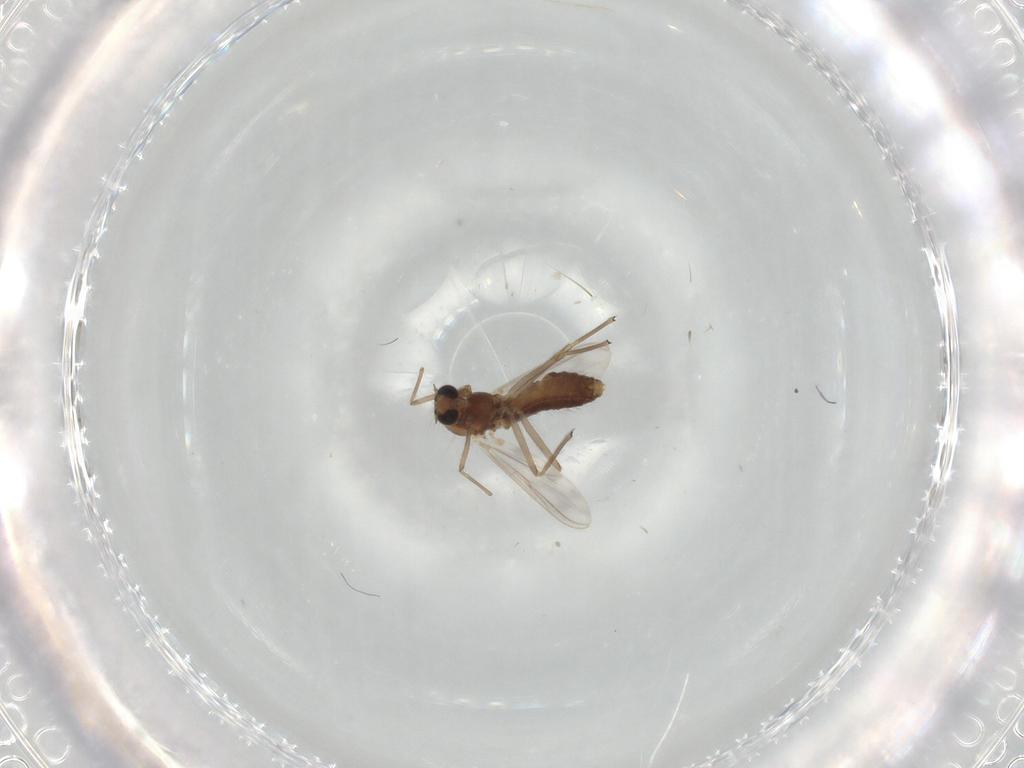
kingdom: Animalia
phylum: Arthropoda
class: Insecta
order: Diptera
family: Chironomidae
